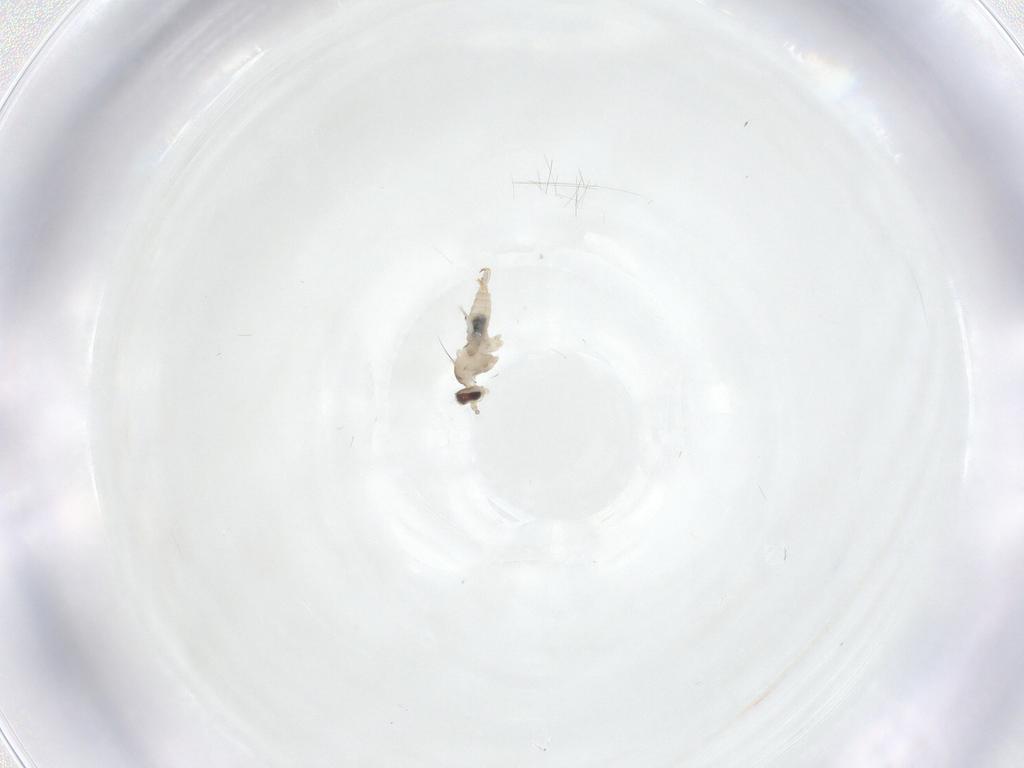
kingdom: Animalia
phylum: Arthropoda
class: Insecta
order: Diptera
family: Cecidomyiidae
